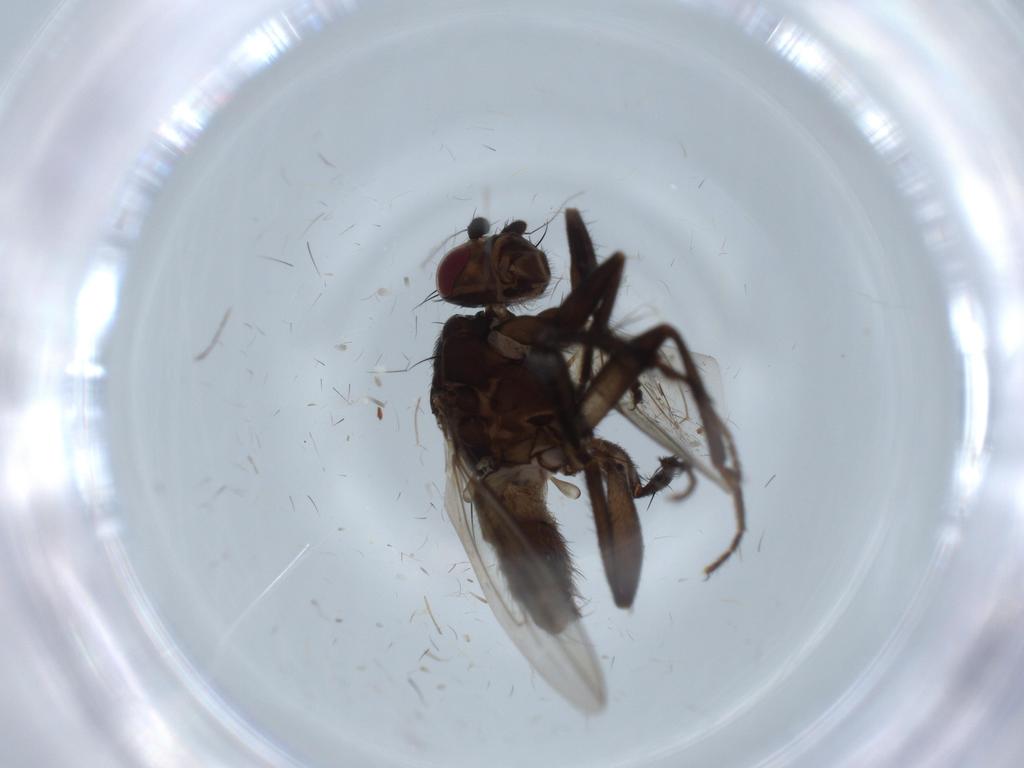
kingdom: Animalia
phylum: Arthropoda
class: Insecta
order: Diptera
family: Sphaeroceridae
